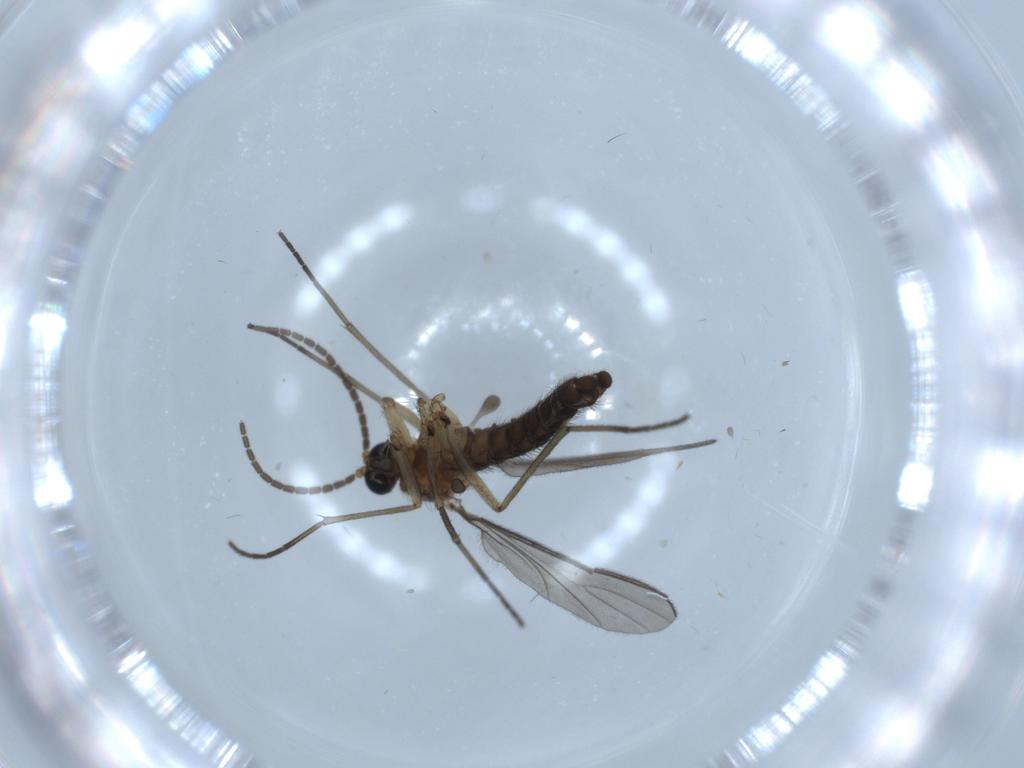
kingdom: Animalia
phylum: Arthropoda
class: Insecta
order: Diptera
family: Sciaridae
